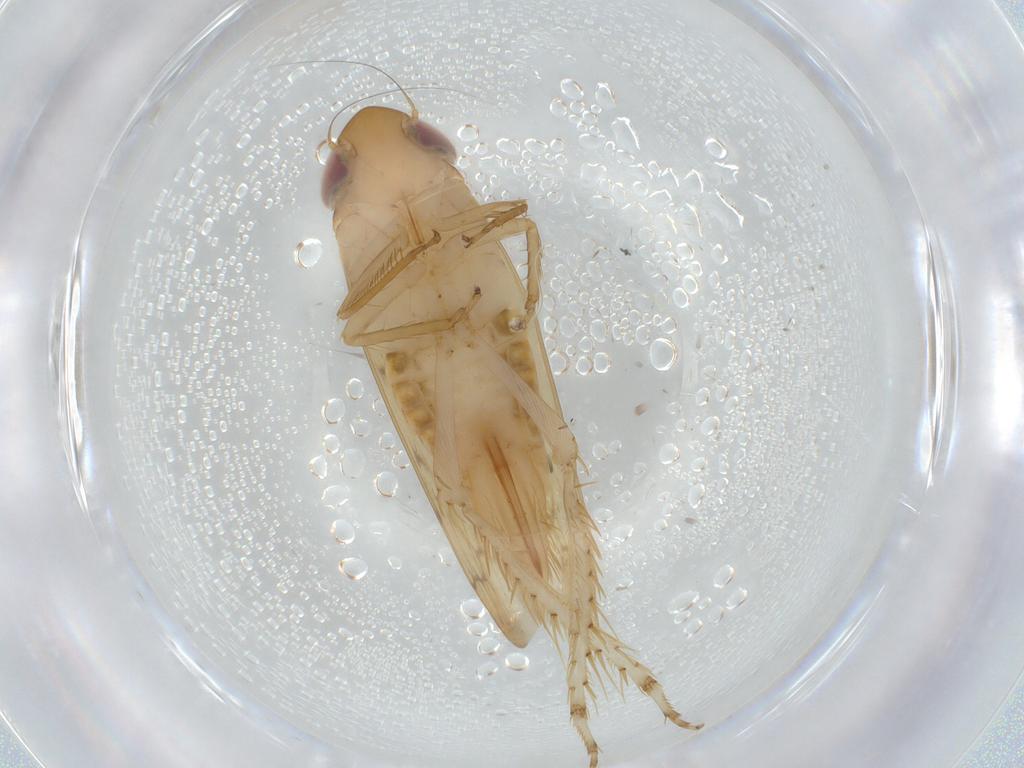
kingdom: Animalia
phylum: Arthropoda
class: Insecta
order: Hemiptera
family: Cicadellidae
